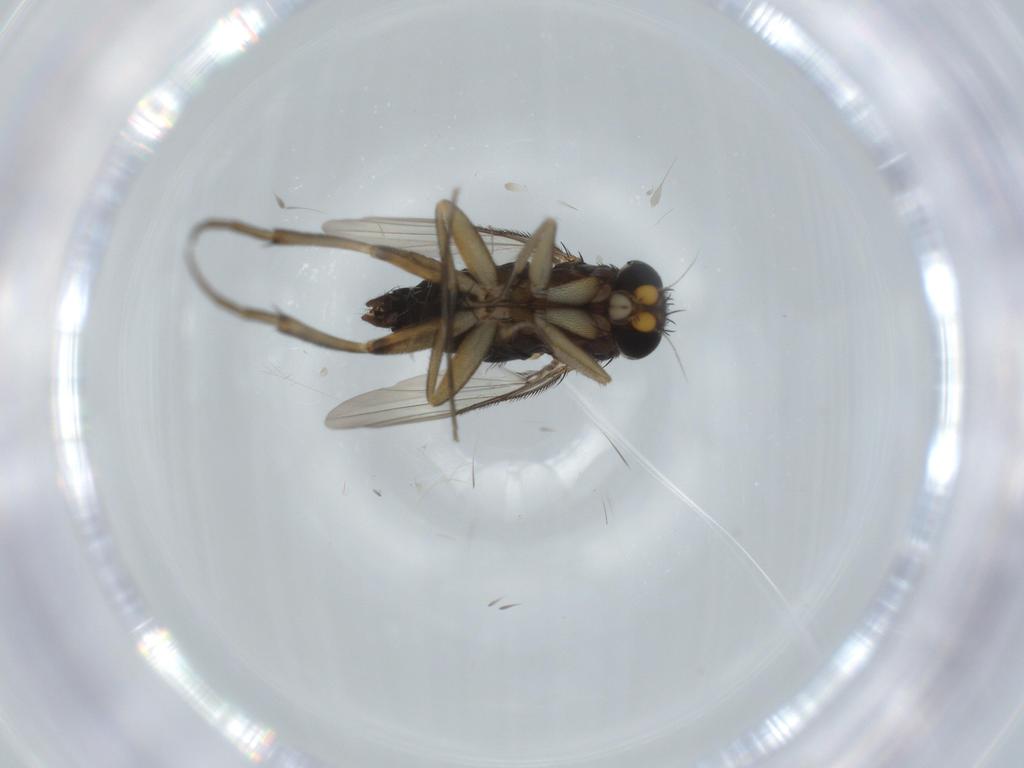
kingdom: Animalia
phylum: Arthropoda
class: Insecta
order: Diptera
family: Phoridae
